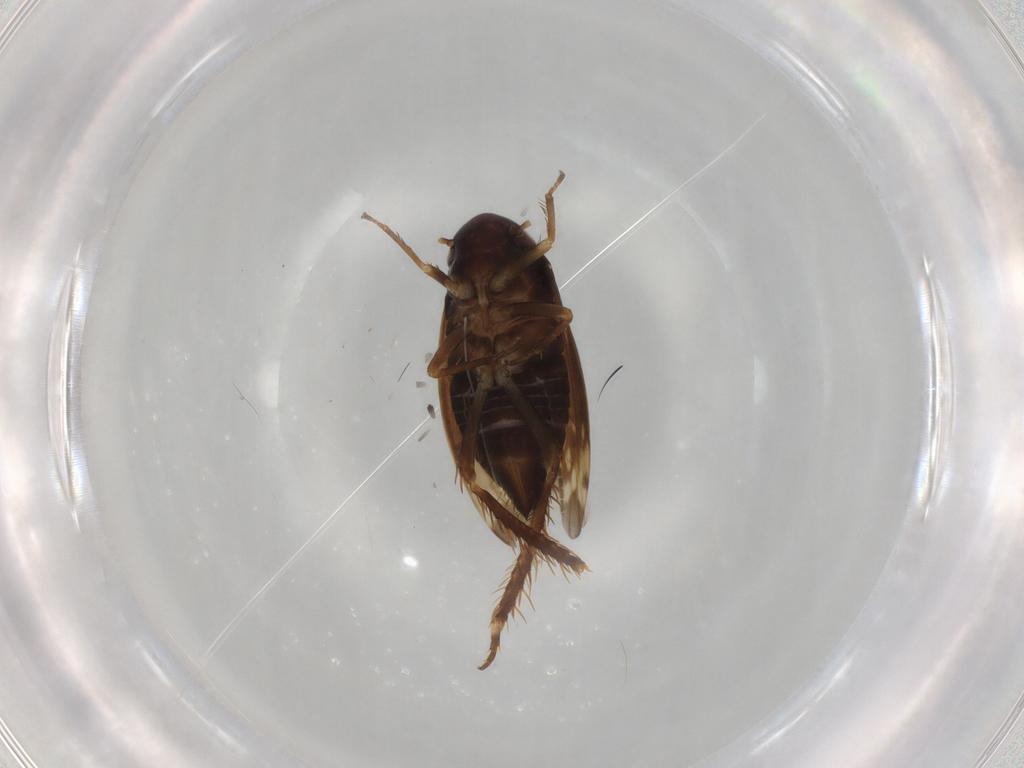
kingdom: Animalia
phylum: Arthropoda
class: Insecta
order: Hemiptera
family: Cicadellidae
